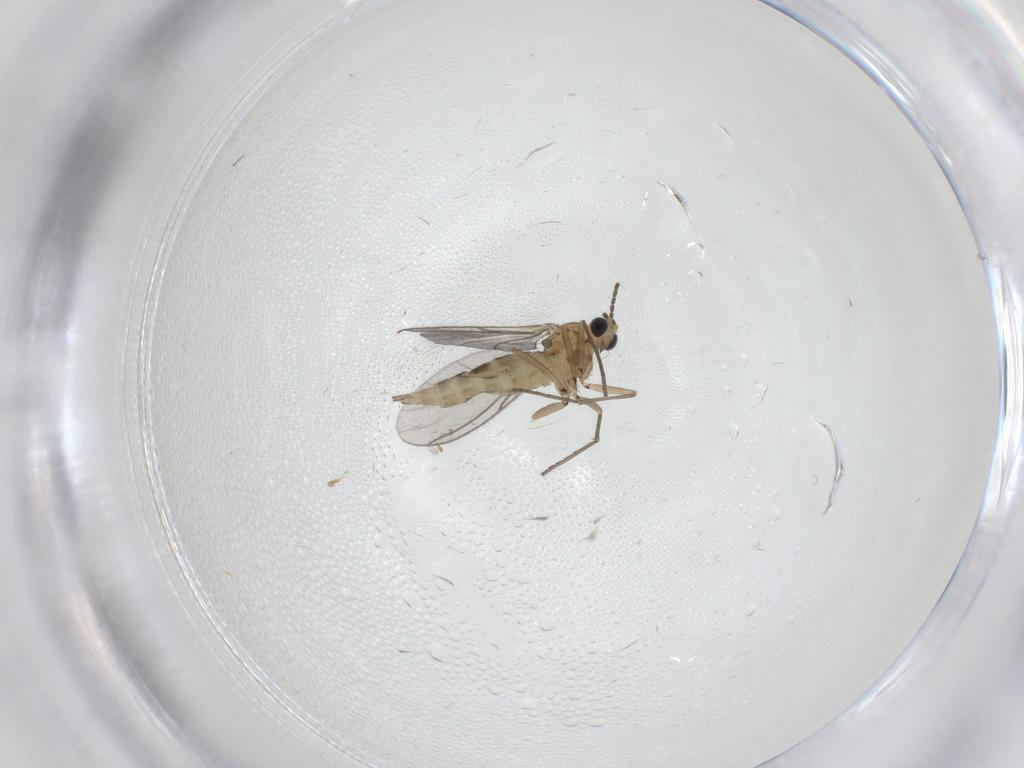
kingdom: Animalia
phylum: Arthropoda
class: Insecta
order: Diptera
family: Sciaridae
